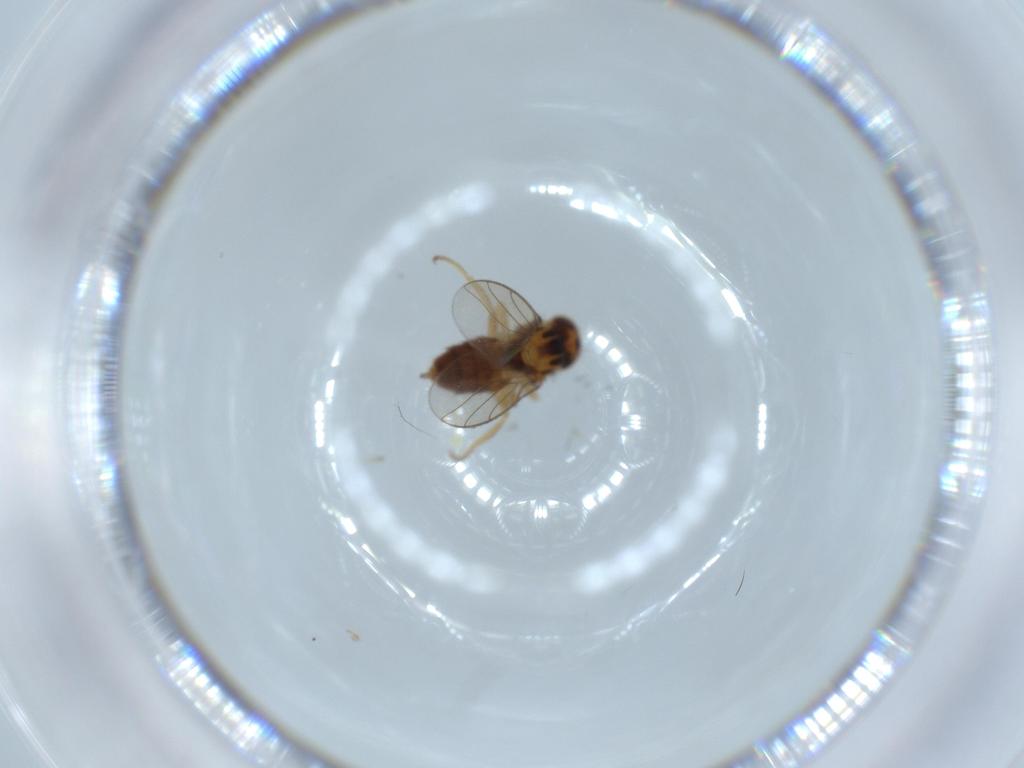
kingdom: Animalia
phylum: Arthropoda
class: Insecta
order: Diptera
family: Chloropidae
